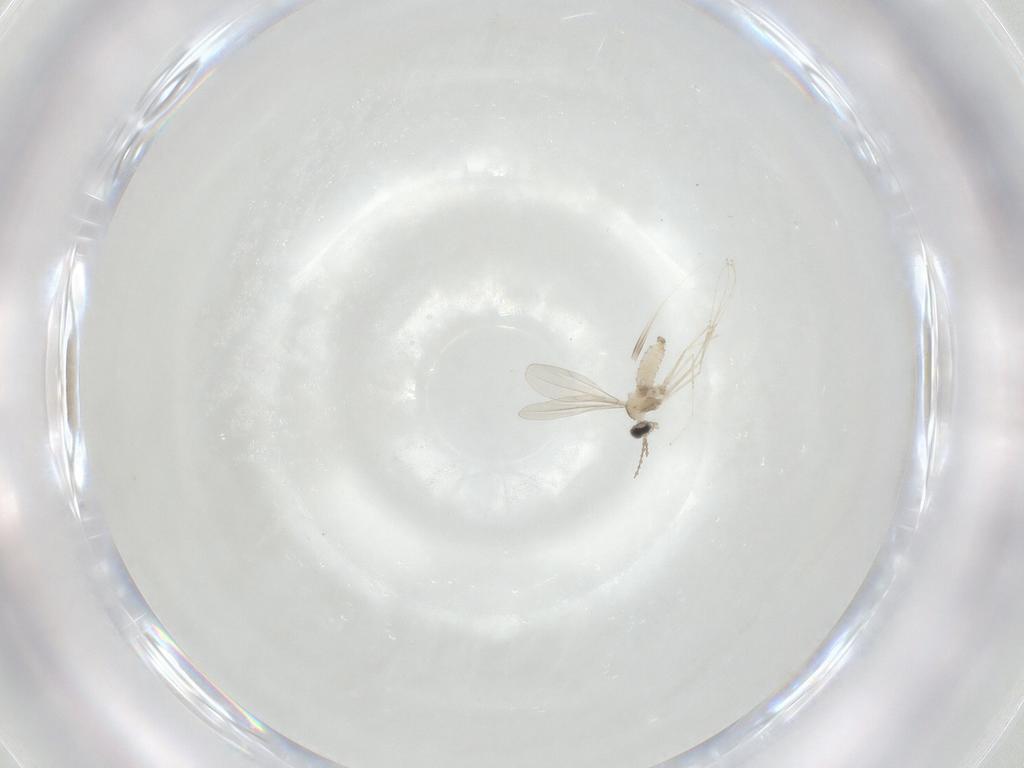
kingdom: Animalia
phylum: Arthropoda
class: Insecta
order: Diptera
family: Cecidomyiidae
